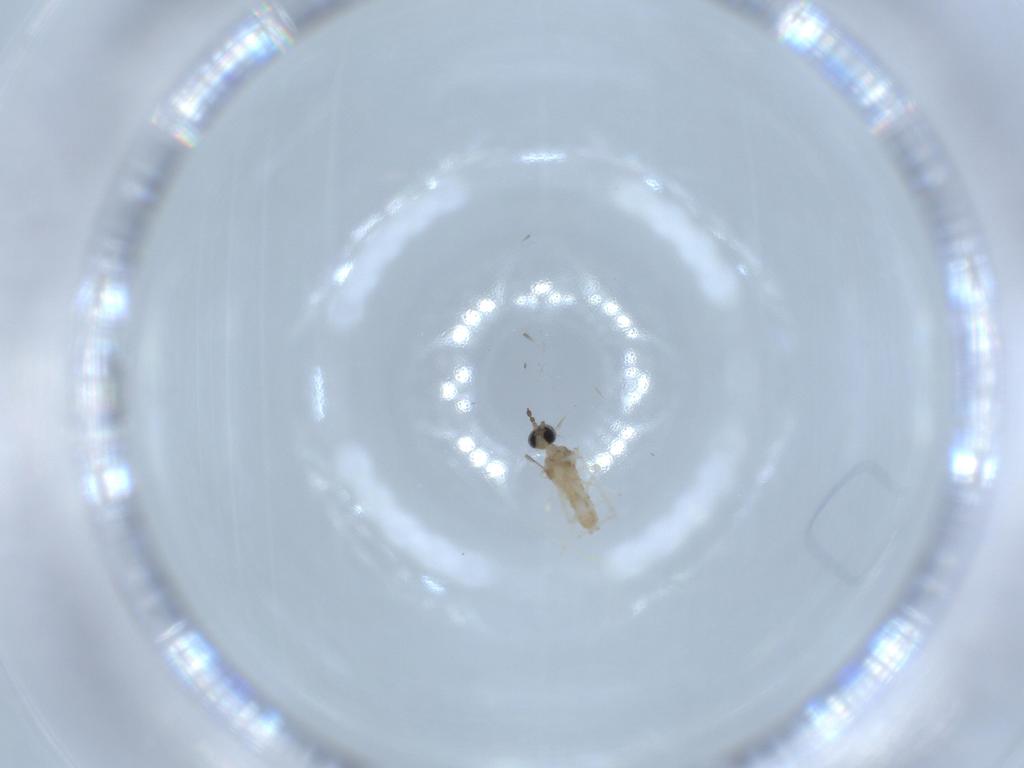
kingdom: Animalia
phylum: Arthropoda
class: Insecta
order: Diptera
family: Cecidomyiidae
